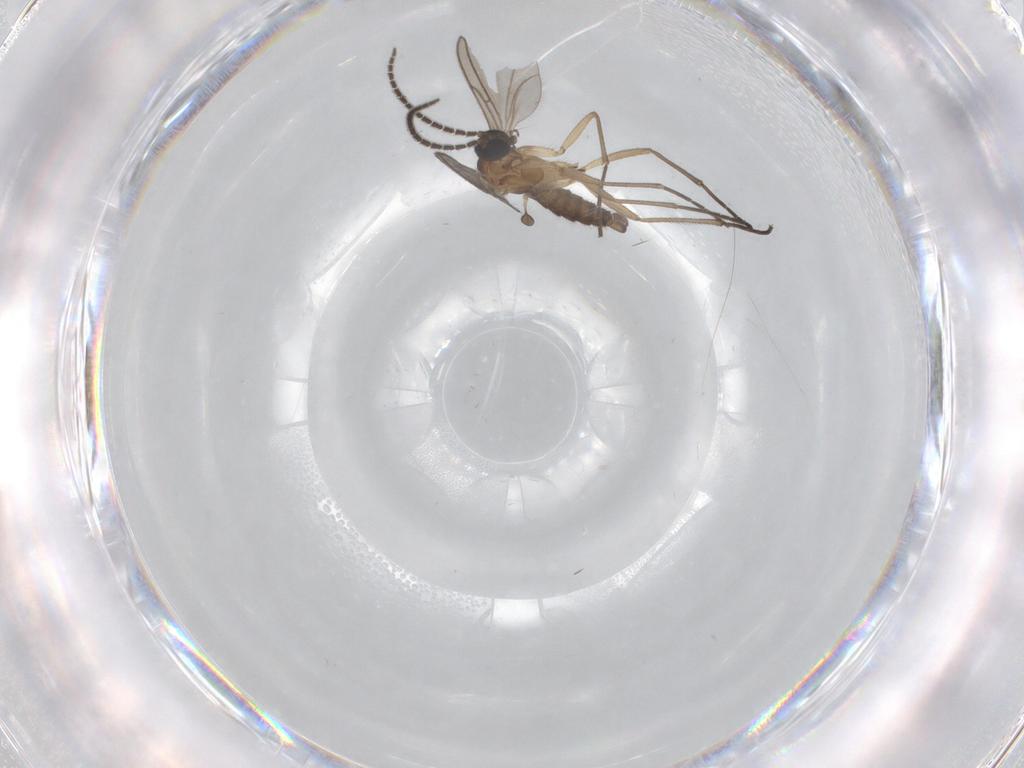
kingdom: Animalia
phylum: Arthropoda
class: Insecta
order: Diptera
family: Sciaridae
